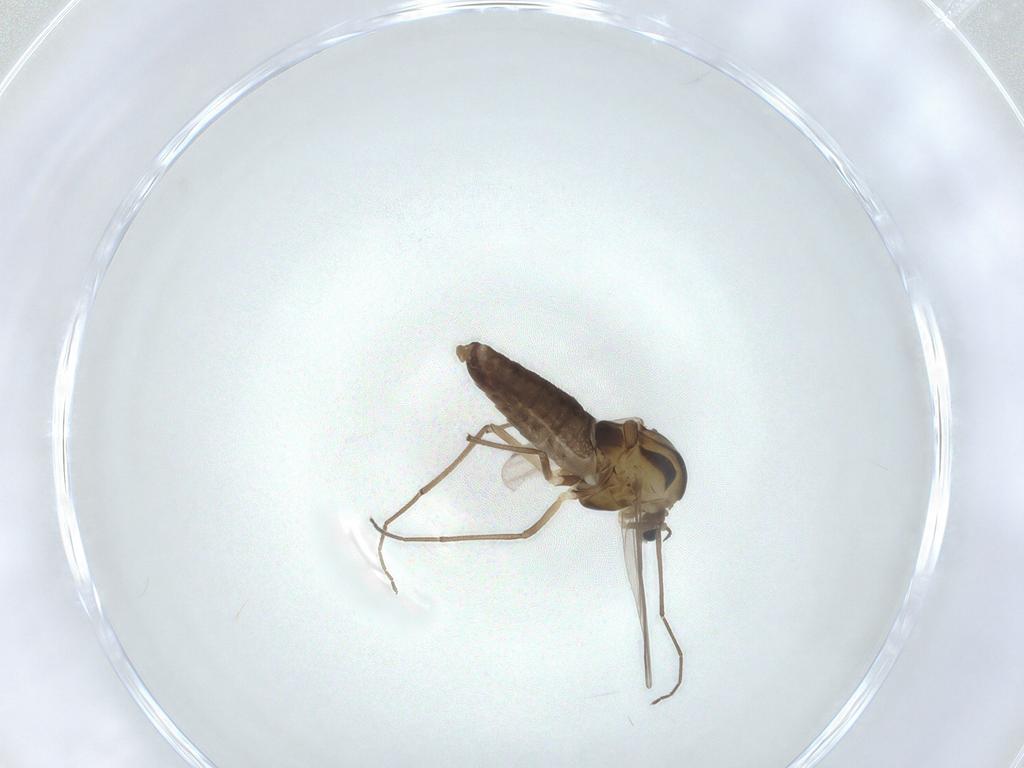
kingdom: Animalia
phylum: Arthropoda
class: Insecta
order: Diptera
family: Chironomidae
